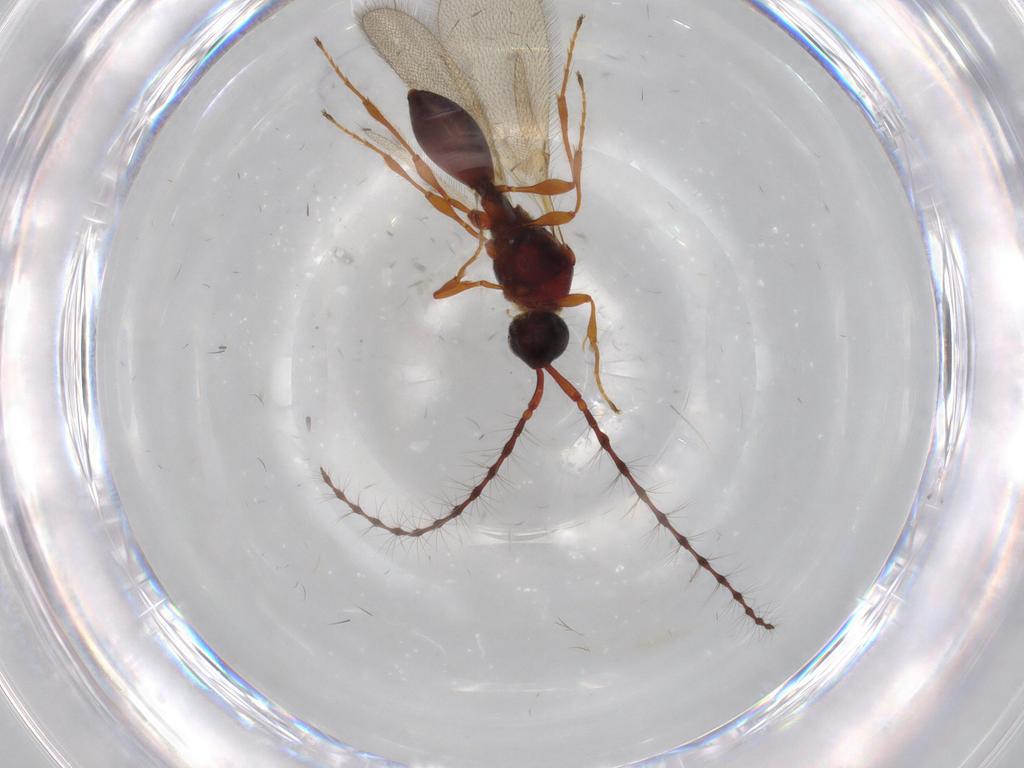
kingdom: Animalia
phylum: Arthropoda
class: Insecta
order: Hymenoptera
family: Diapriidae
